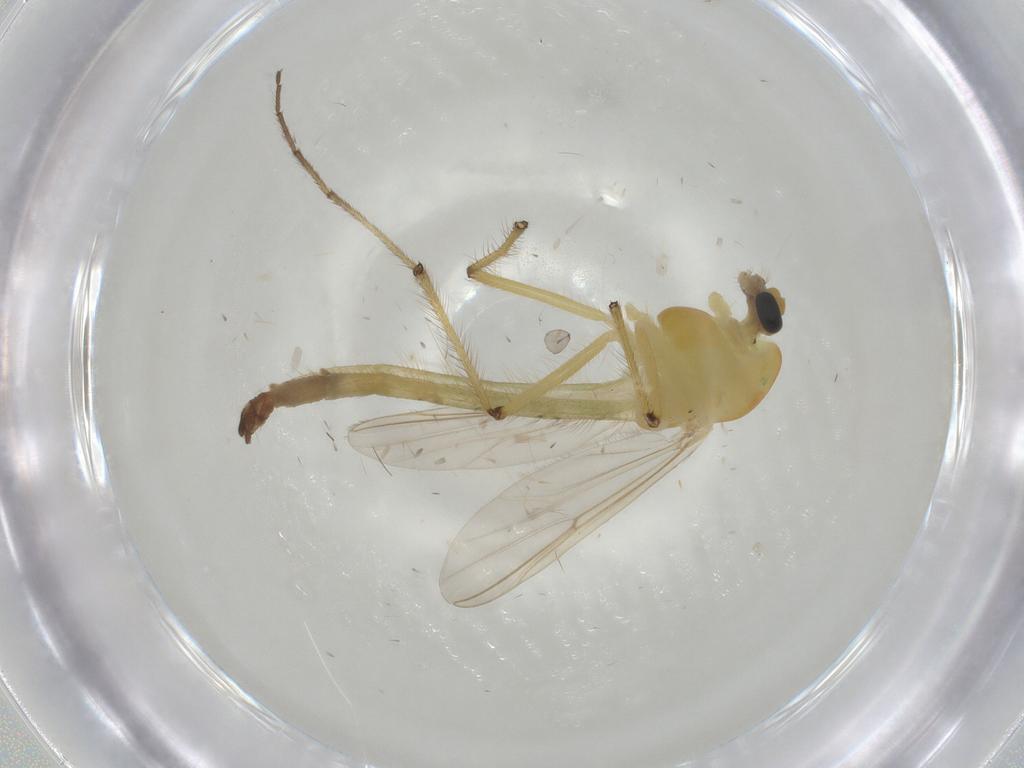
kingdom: Animalia
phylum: Arthropoda
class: Insecta
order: Diptera
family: Chironomidae
